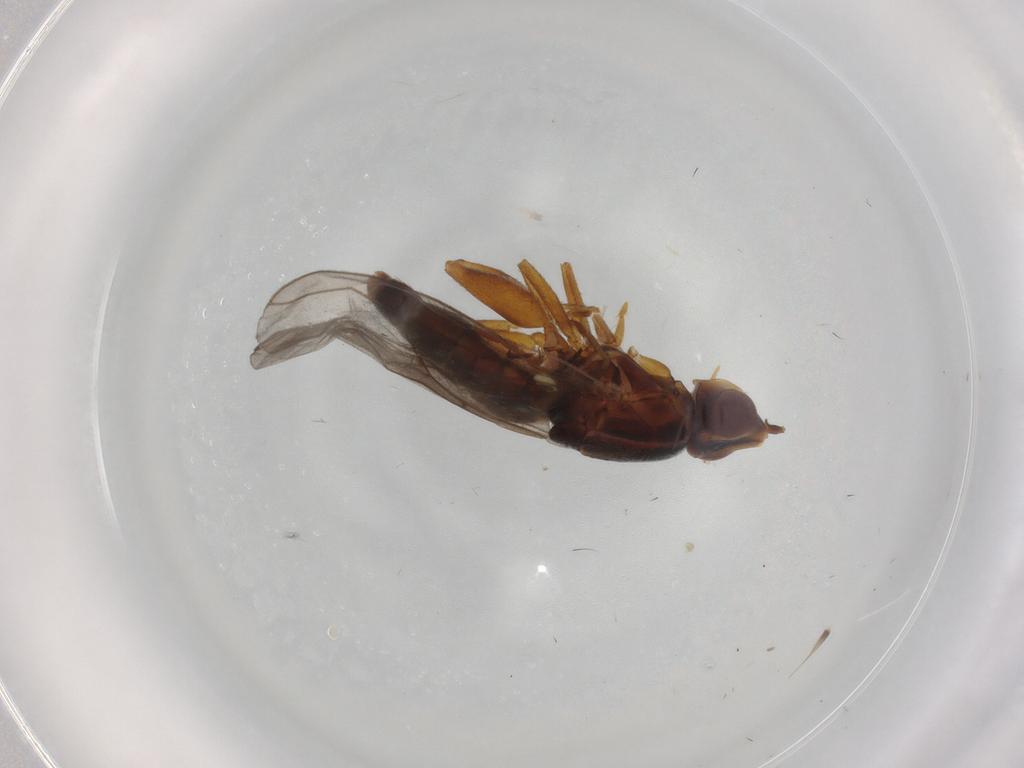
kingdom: Animalia
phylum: Arthropoda
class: Insecta
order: Diptera
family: Chloropidae
